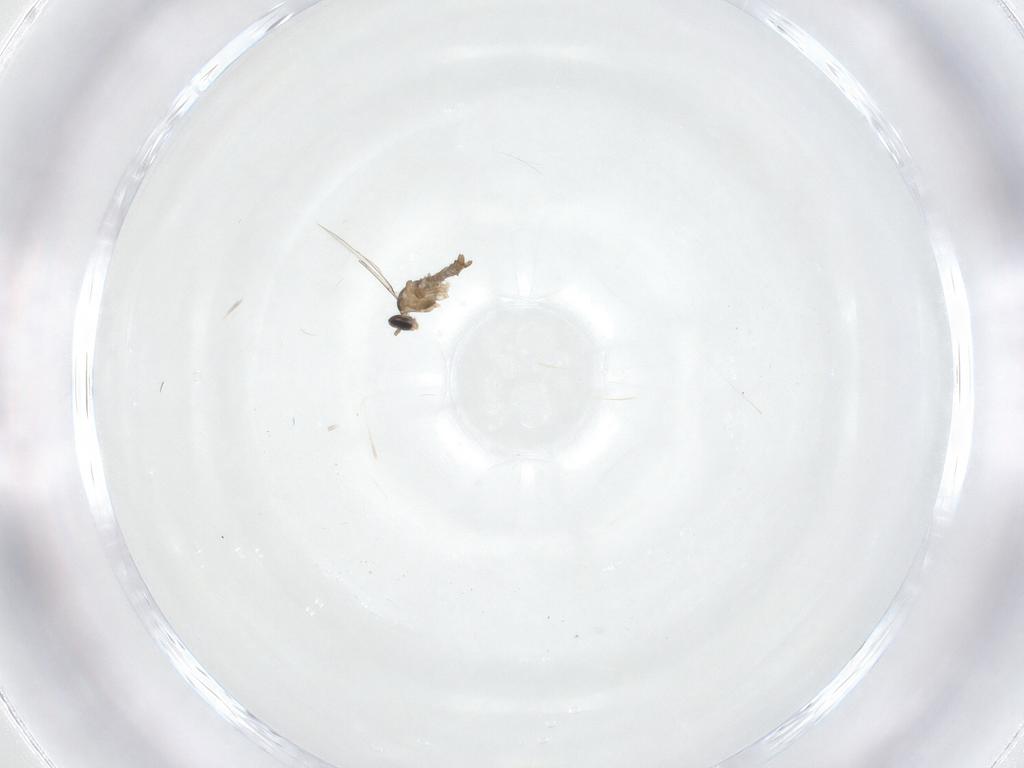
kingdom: Animalia
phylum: Arthropoda
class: Insecta
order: Diptera
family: Cecidomyiidae
